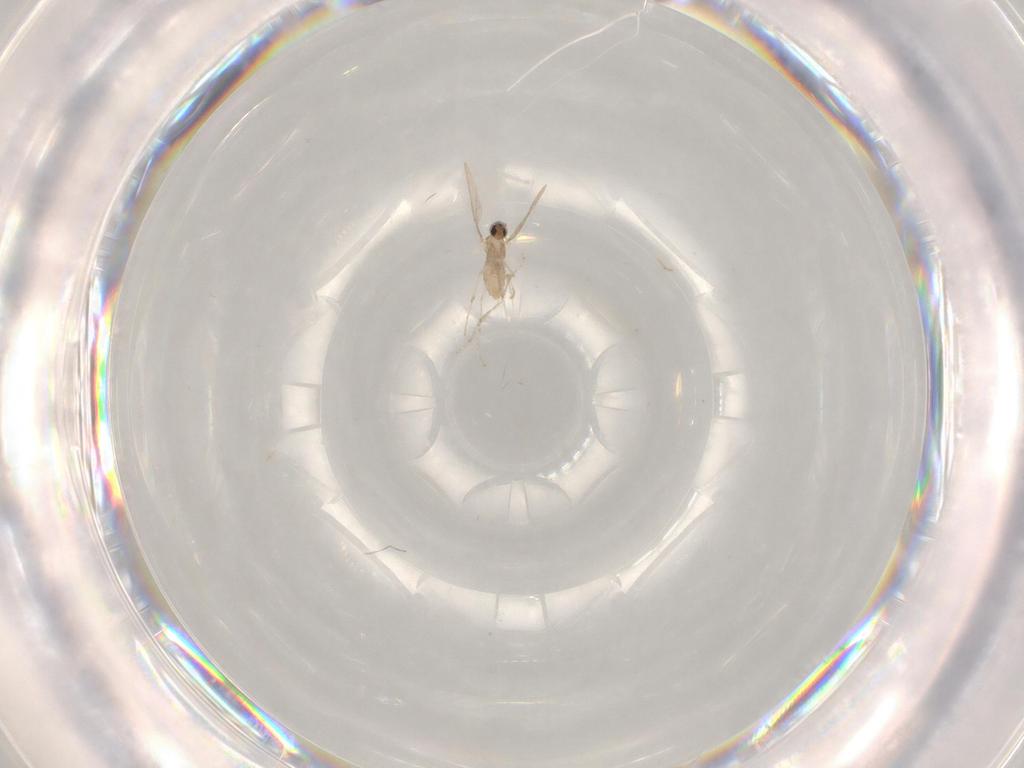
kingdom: Animalia
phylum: Arthropoda
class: Insecta
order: Diptera
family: Cecidomyiidae
